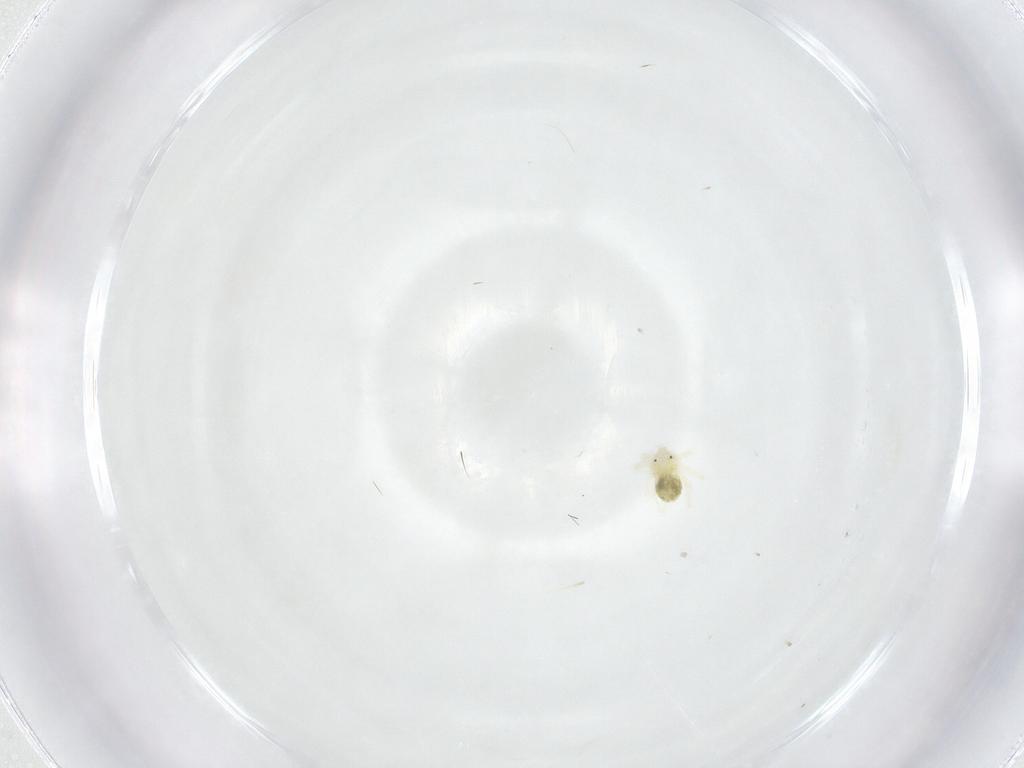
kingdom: Animalia
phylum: Arthropoda
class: Arachnida
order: Trombidiformes
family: Anystidae
